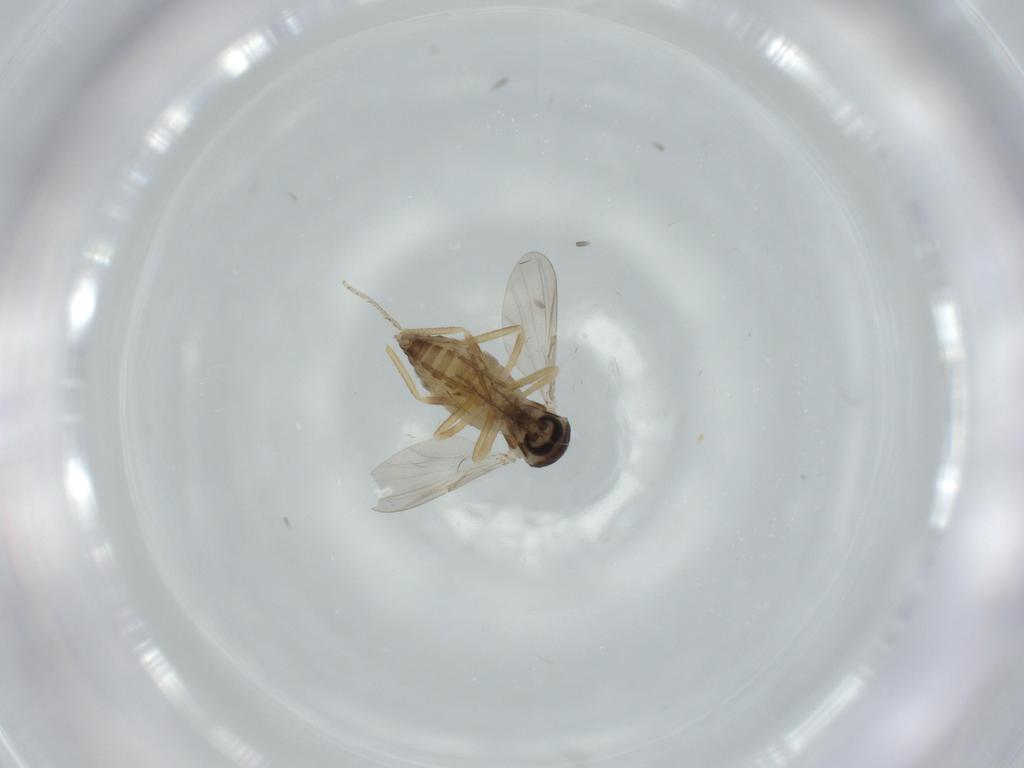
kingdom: Animalia
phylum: Arthropoda
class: Insecta
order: Diptera
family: Ceratopogonidae
